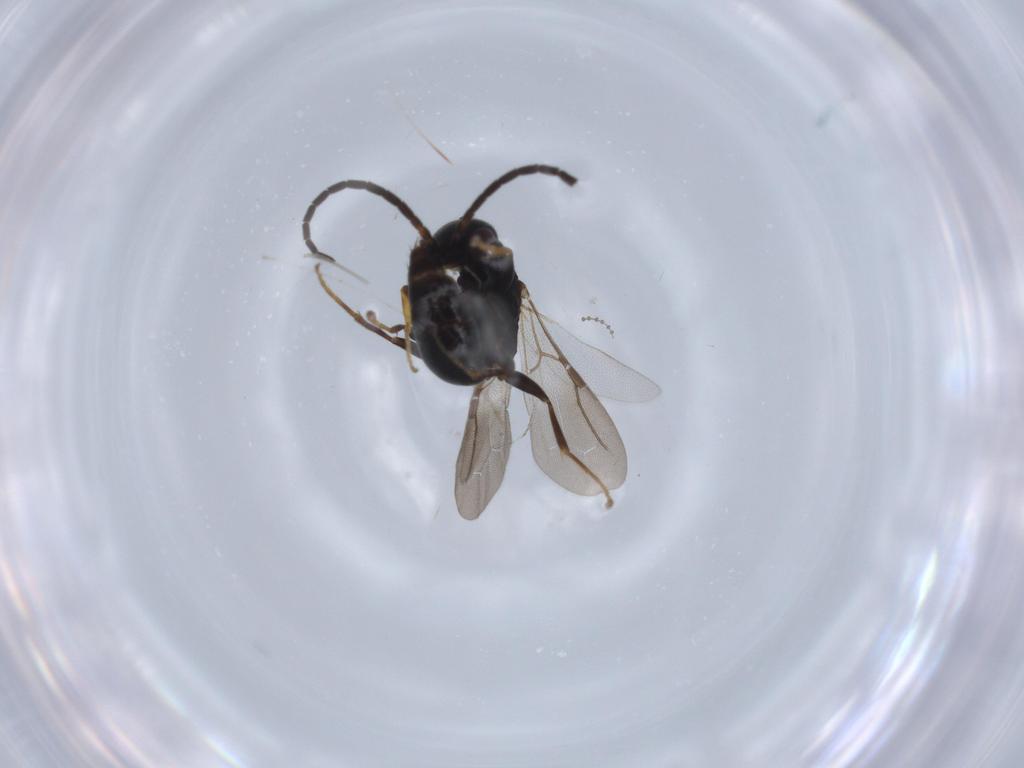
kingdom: Animalia
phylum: Arthropoda
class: Insecta
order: Hymenoptera
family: Bethylidae
